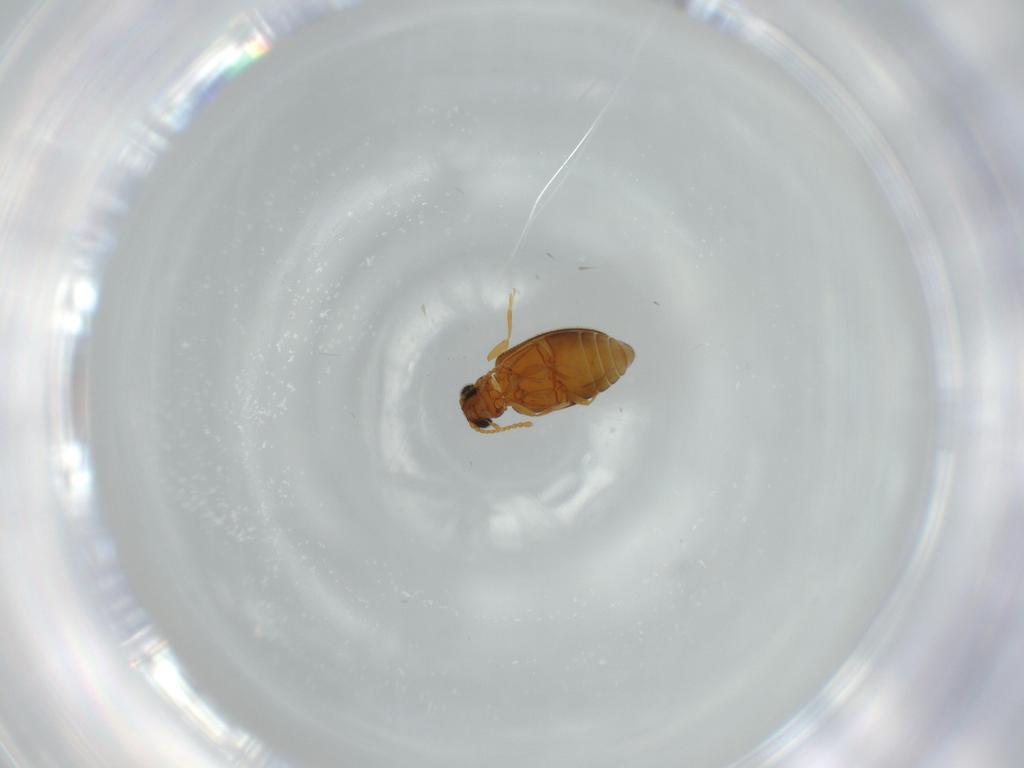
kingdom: Animalia
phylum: Arthropoda
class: Insecta
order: Coleoptera
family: Aderidae
